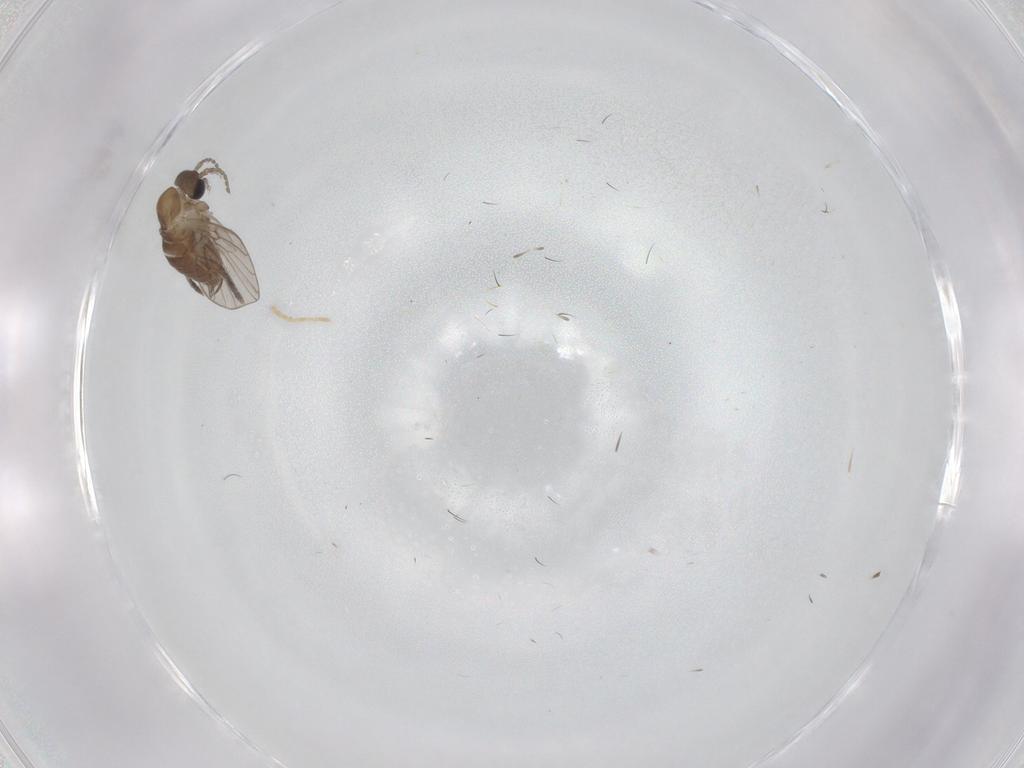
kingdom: Animalia
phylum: Arthropoda
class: Insecta
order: Diptera
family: Psychodidae
